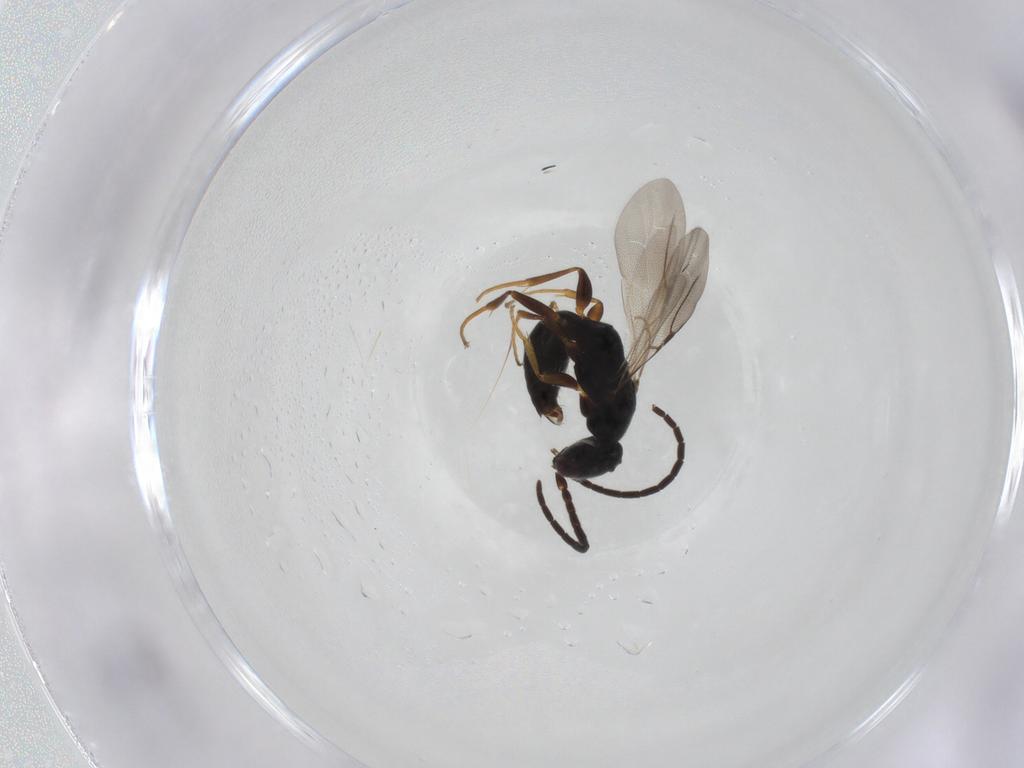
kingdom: Animalia
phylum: Arthropoda
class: Insecta
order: Hymenoptera
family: Bethylidae
